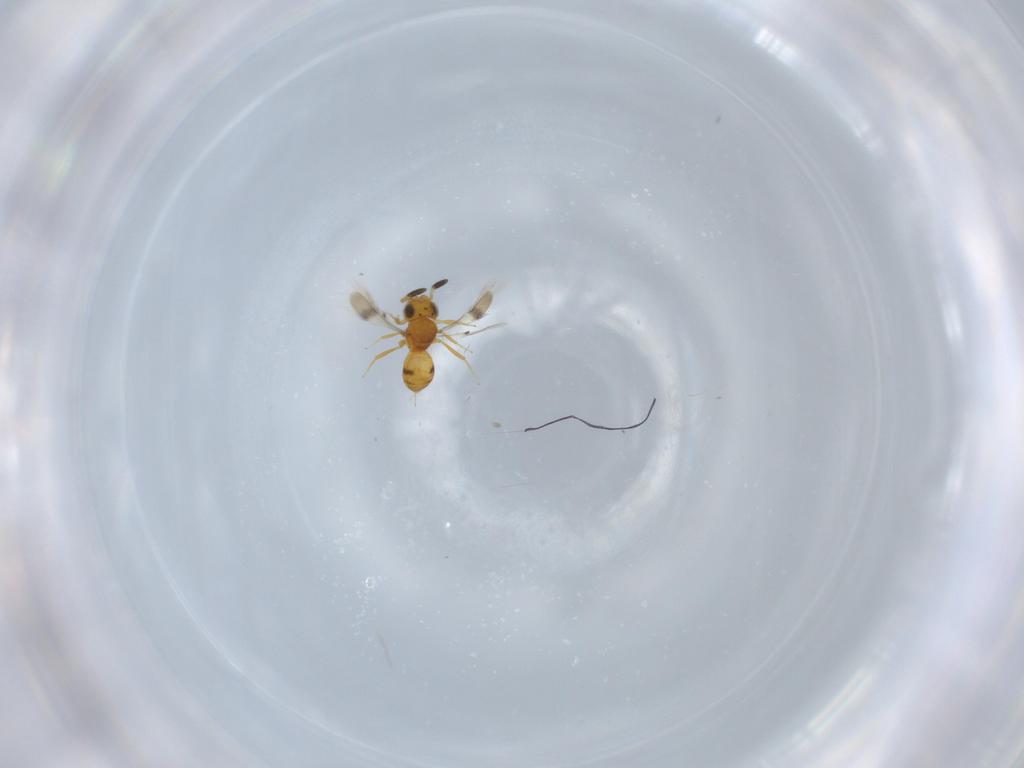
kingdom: Animalia
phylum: Arthropoda
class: Insecta
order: Hymenoptera
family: Scelionidae
